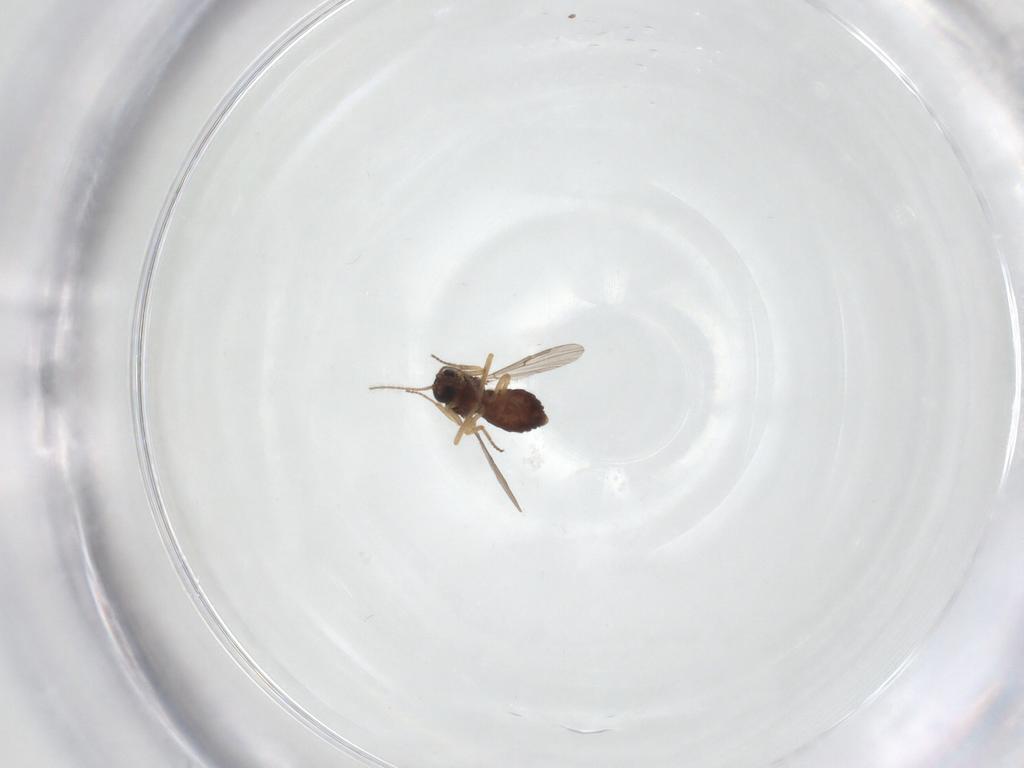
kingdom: Animalia
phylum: Arthropoda
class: Insecta
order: Diptera
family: Ceratopogonidae
